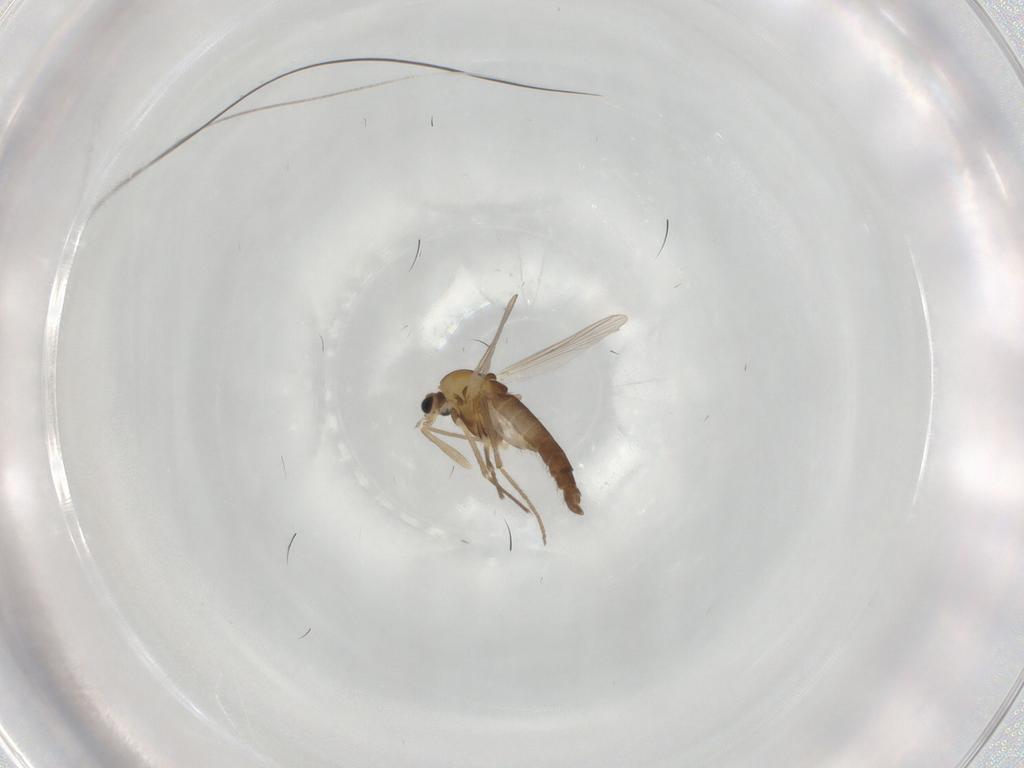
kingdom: Animalia
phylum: Arthropoda
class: Insecta
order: Diptera
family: Chironomidae
